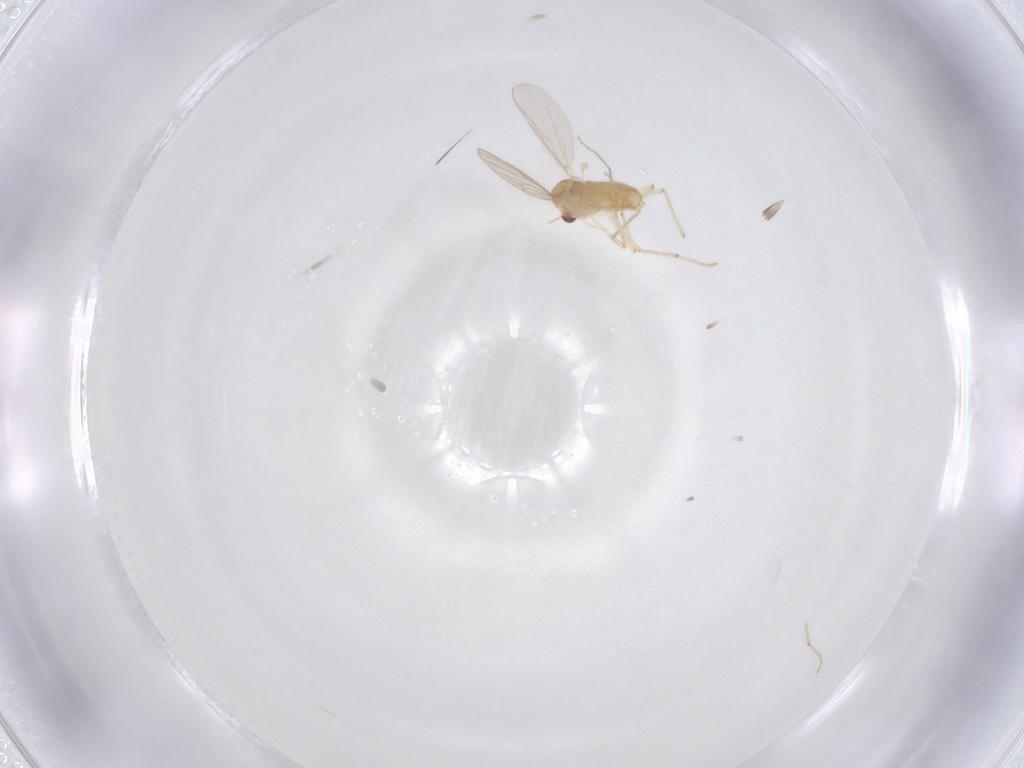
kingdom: Animalia
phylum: Arthropoda
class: Insecta
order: Diptera
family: Chironomidae
